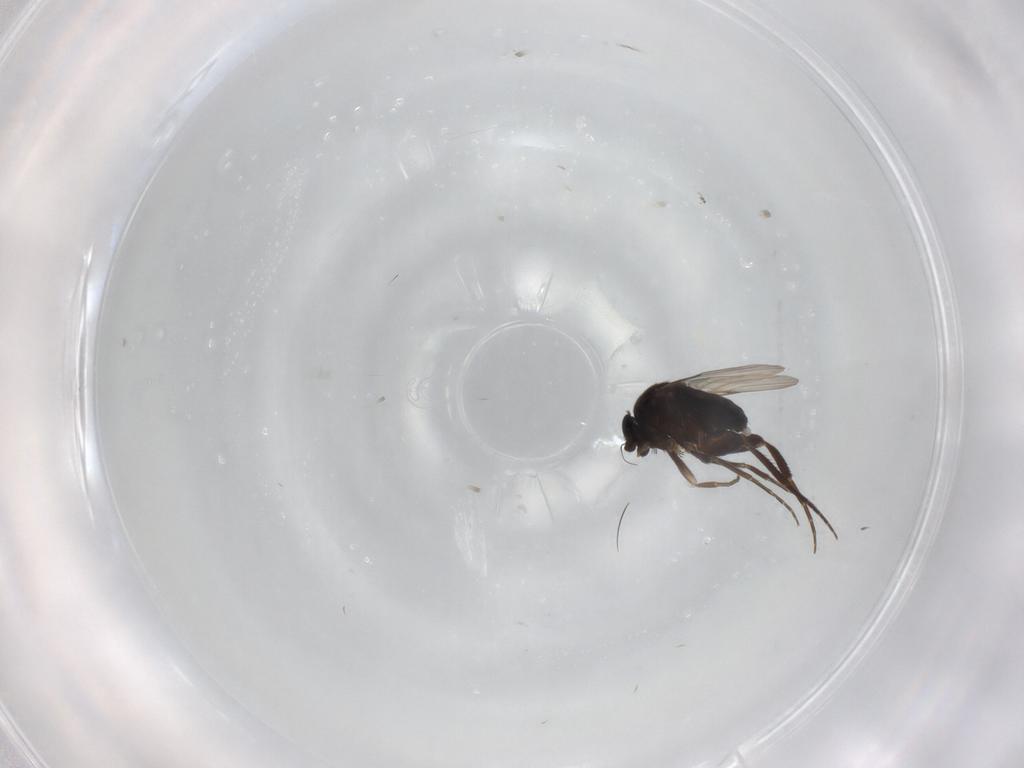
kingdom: Animalia
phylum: Arthropoda
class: Insecta
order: Diptera
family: Phoridae
